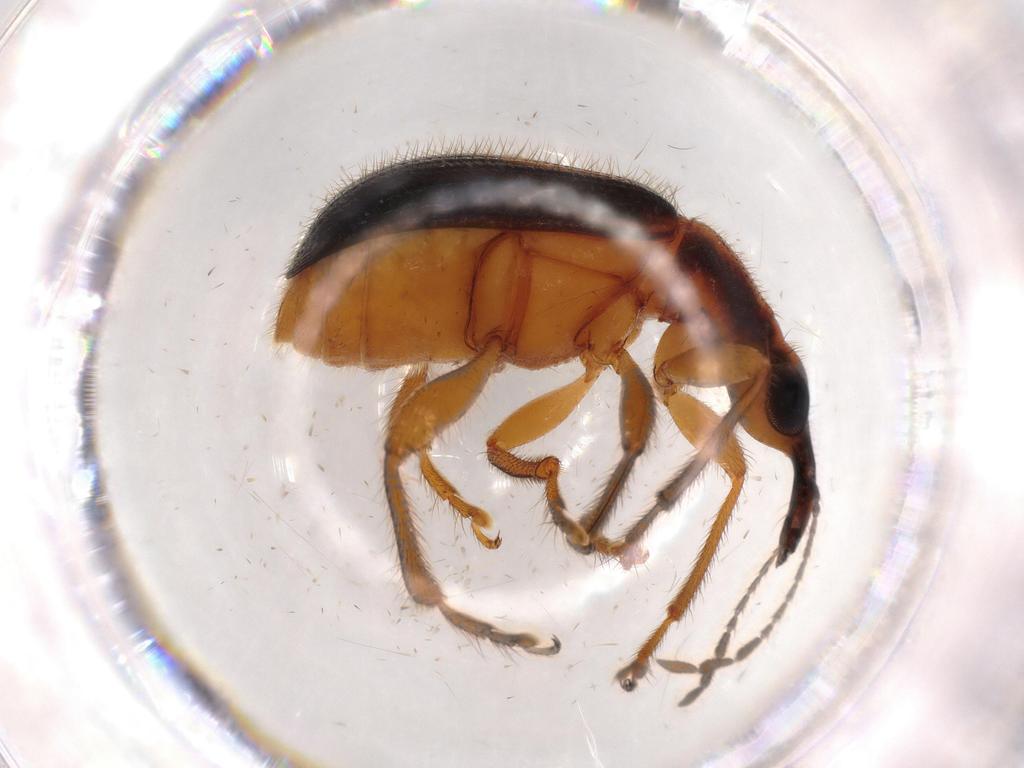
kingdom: Animalia
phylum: Arthropoda
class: Insecta
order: Coleoptera
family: Attelabidae
